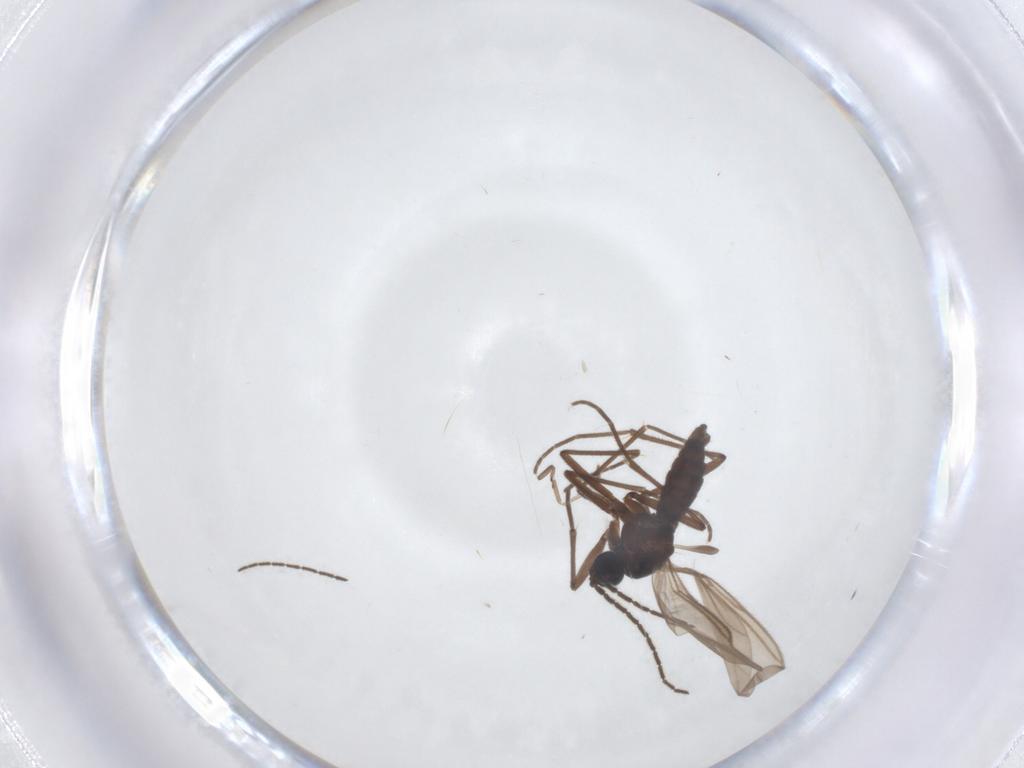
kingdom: Animalia
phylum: Arthropoda
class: Insecta
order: Diptera
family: Sciaridae
